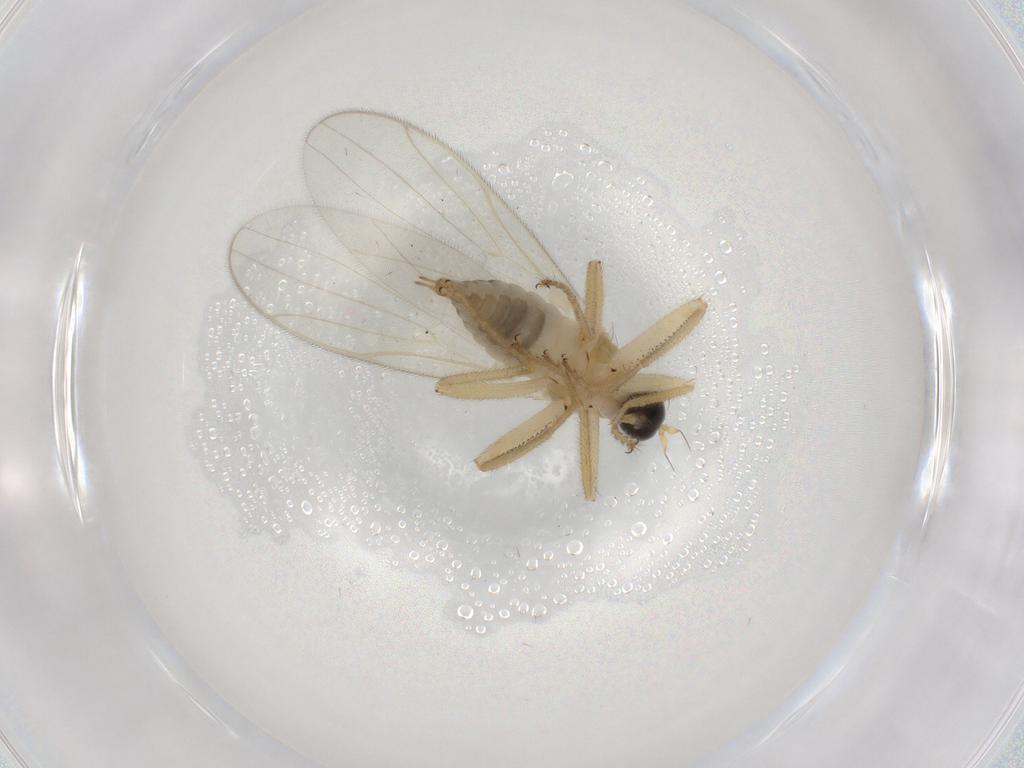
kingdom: Animalia
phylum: Arthropoda
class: Insecta
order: Diptera
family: Hybotidae
